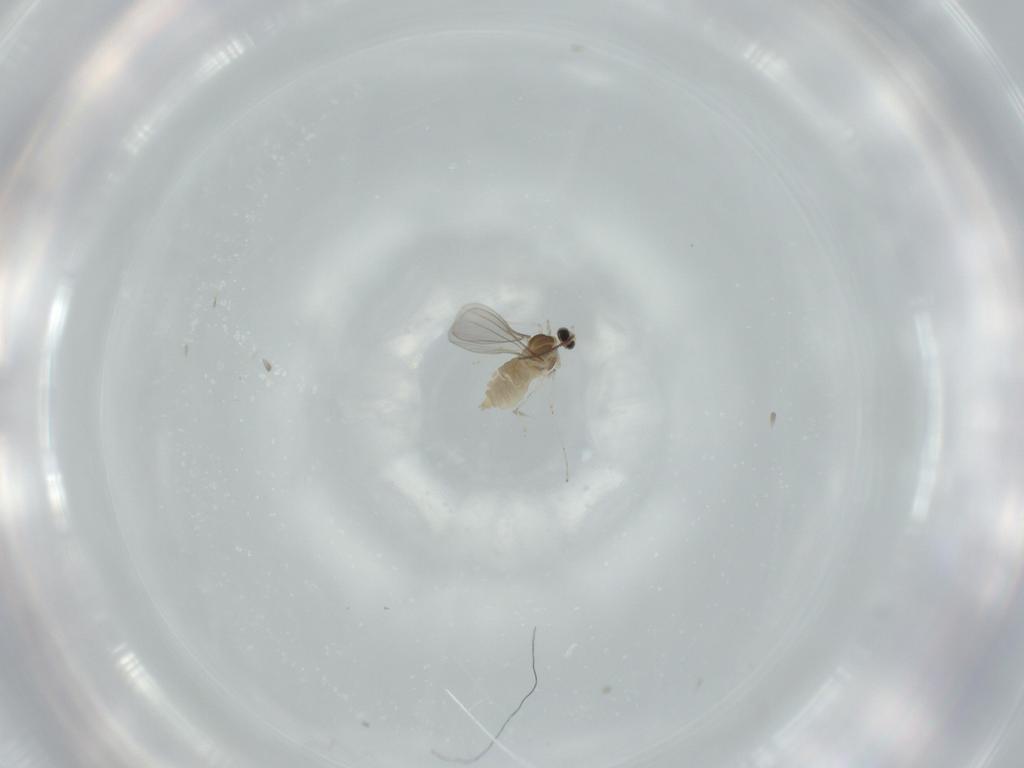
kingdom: Animalia
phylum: Arthropoda
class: Insecta
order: Diptera
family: Cecidomyiidae
